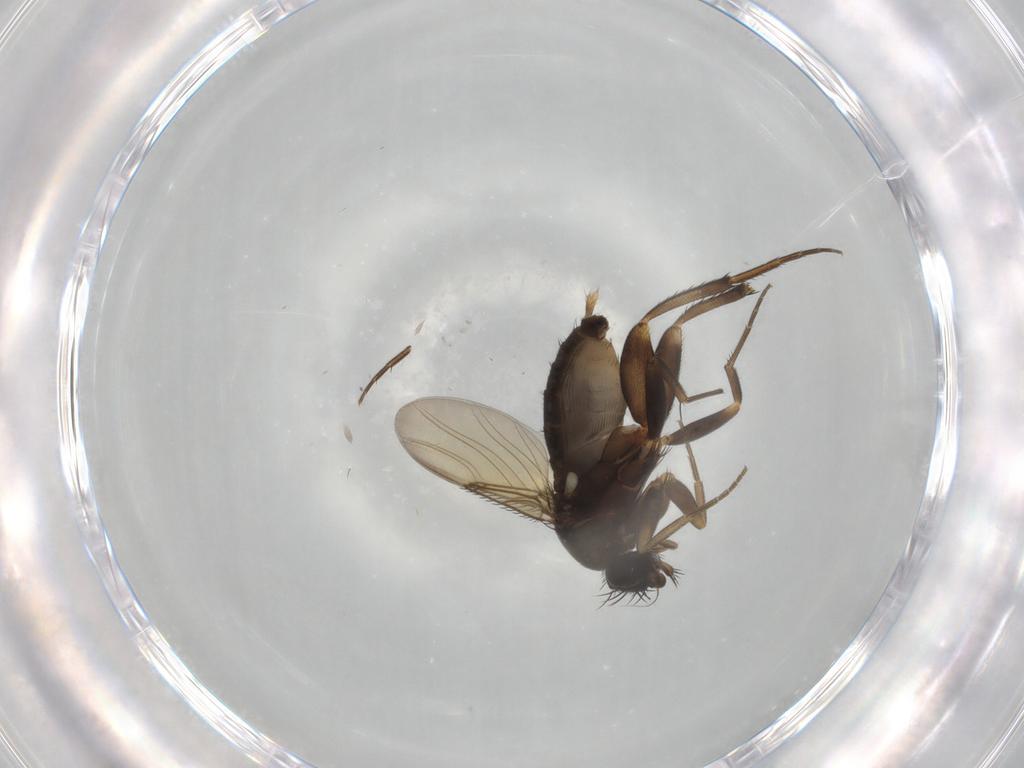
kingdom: Animalia
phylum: Arthropoda
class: Insecta
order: Diptera
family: Phoridae
